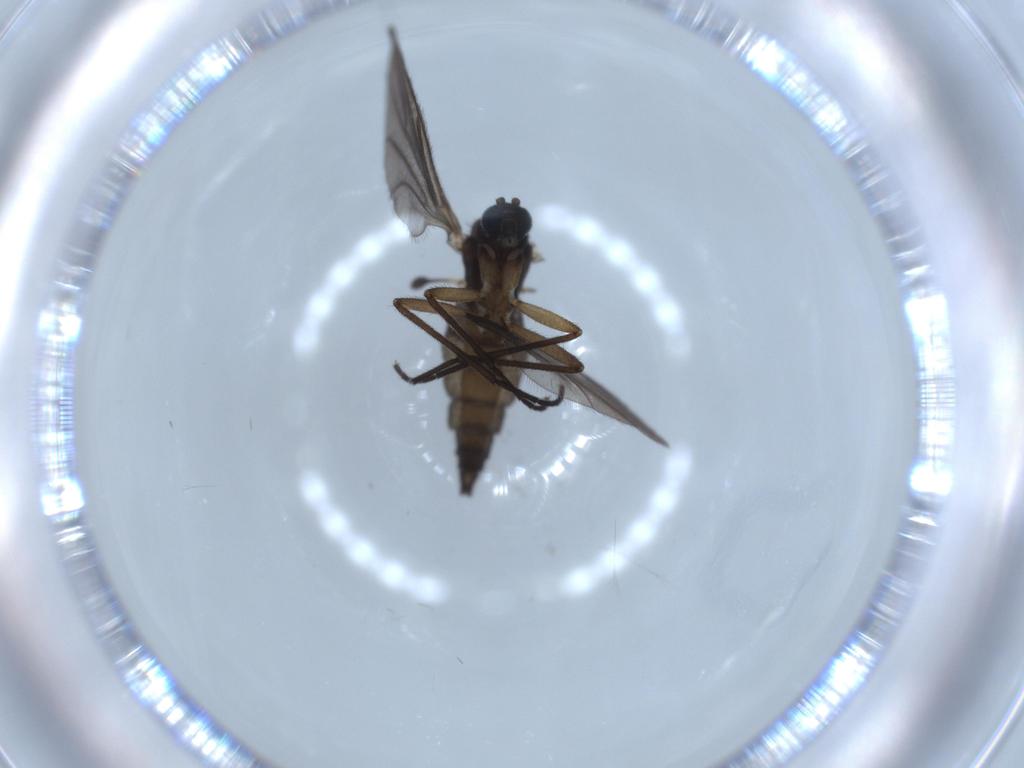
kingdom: Animalia
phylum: Arthropoda
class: Insecta
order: Diptera
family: Sciaridae
